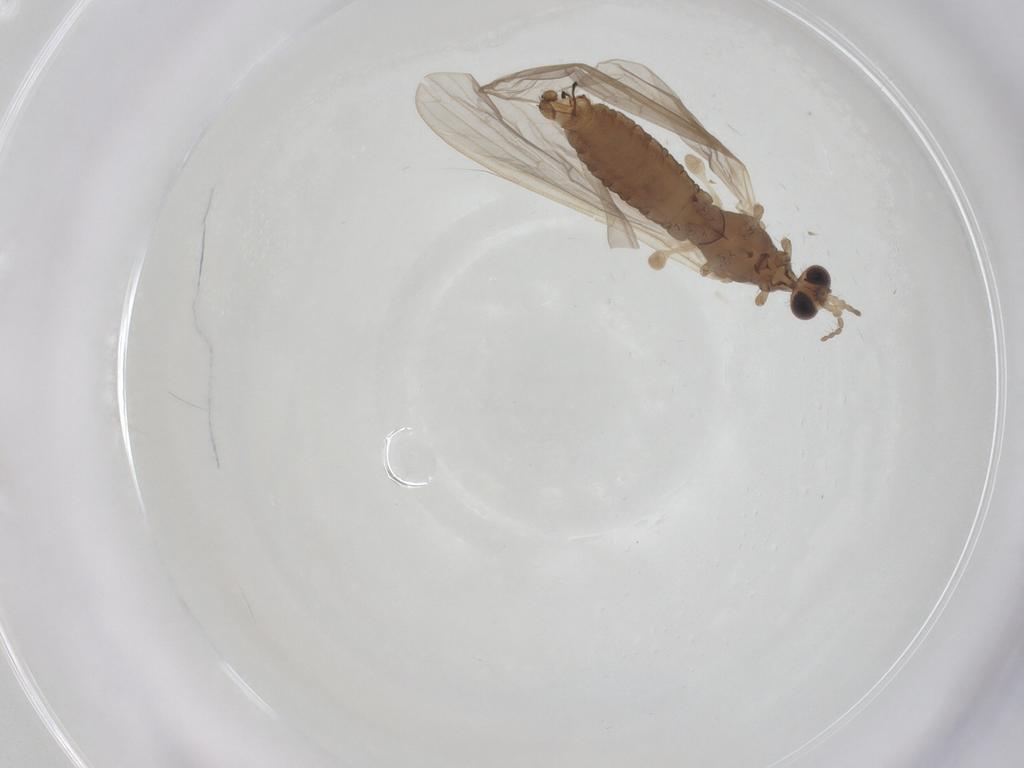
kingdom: Animalia
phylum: Arthropoda
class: Insecta
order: Diptera
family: Limoniidae
